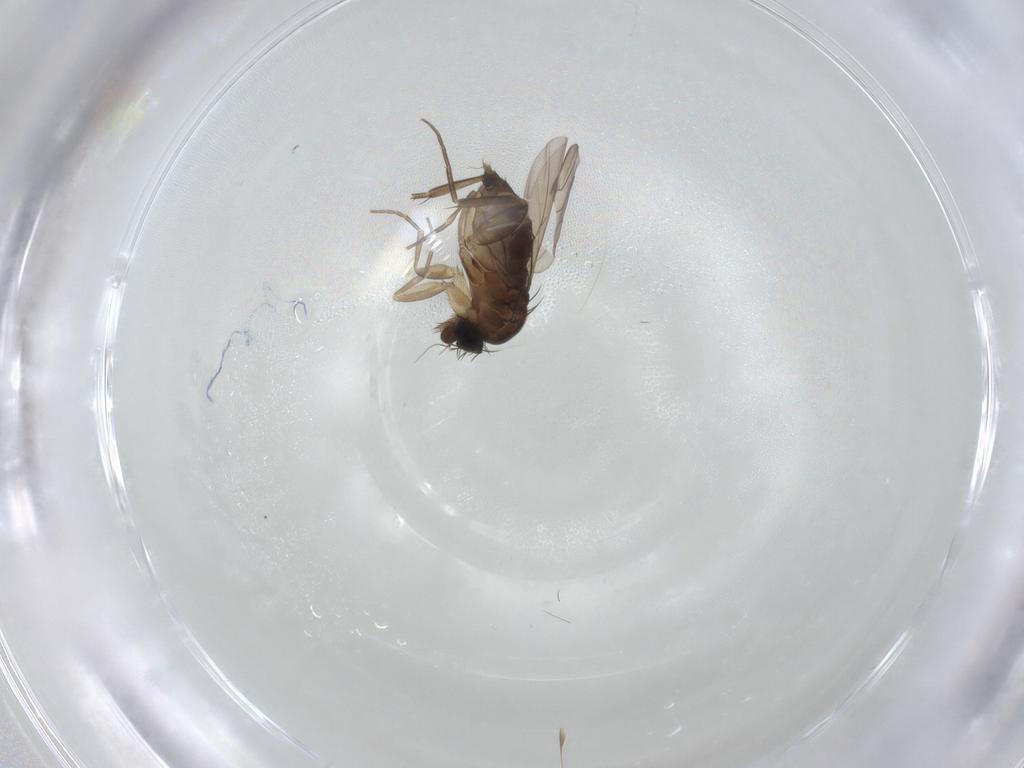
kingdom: Animalia
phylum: Arthropoda
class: Insecta
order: Diptera
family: Phoridae
